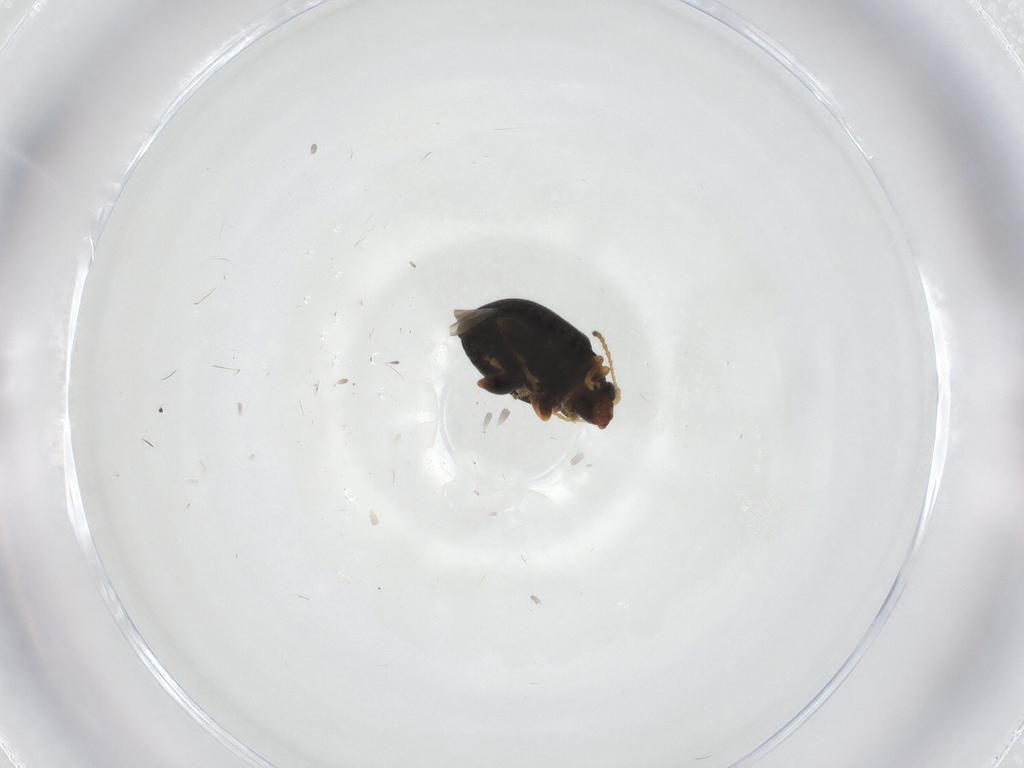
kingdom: Animalia
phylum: Arthropoda
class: Insecta
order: Coleoptera
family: Chrysomelidae
